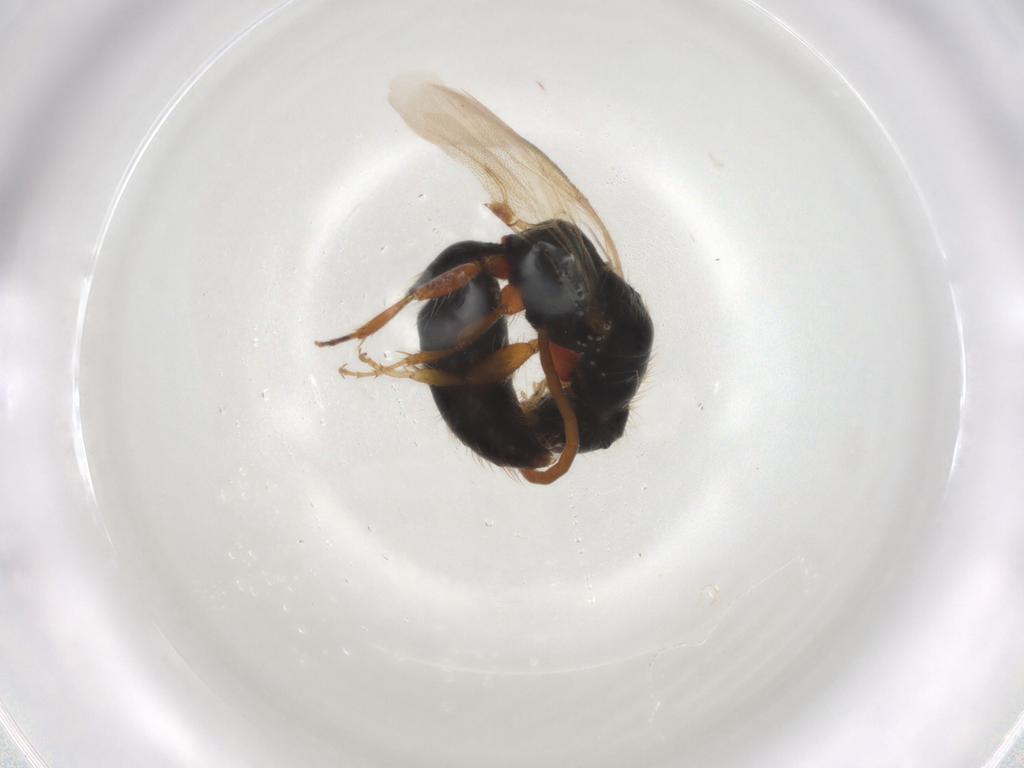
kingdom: Animalia
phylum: Arthropoda
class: Insecta
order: Hymenoptera
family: Bethylidae
